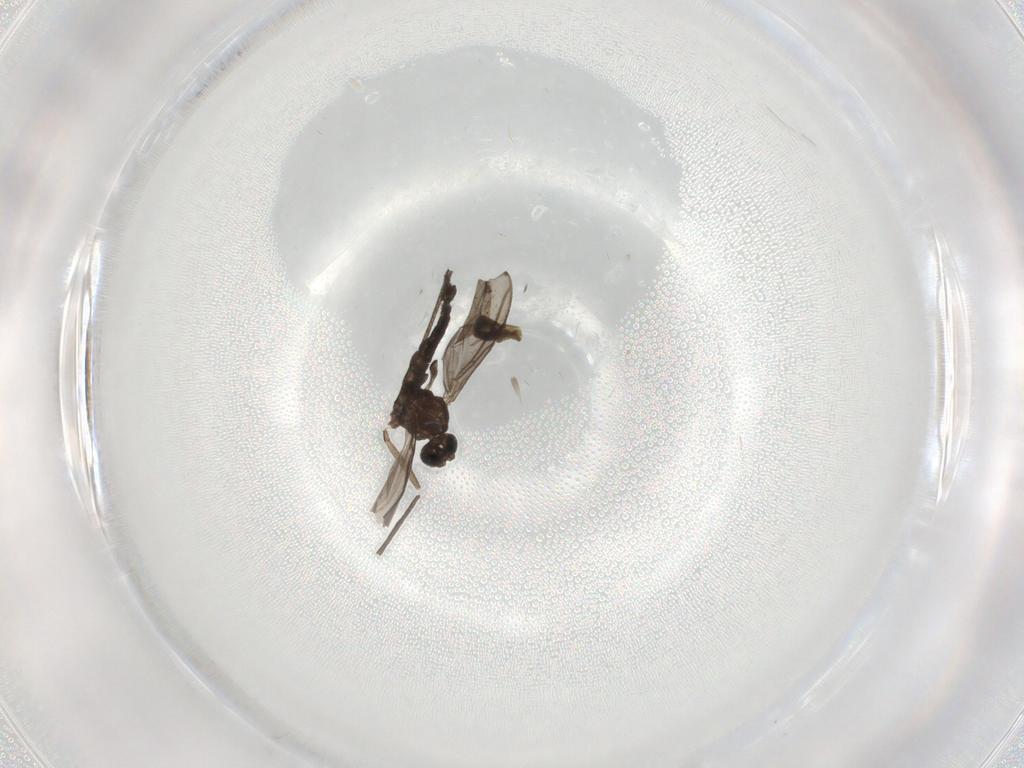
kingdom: Animalia
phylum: Arthropoda
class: Insecta
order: Diptera
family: Sciaridae
